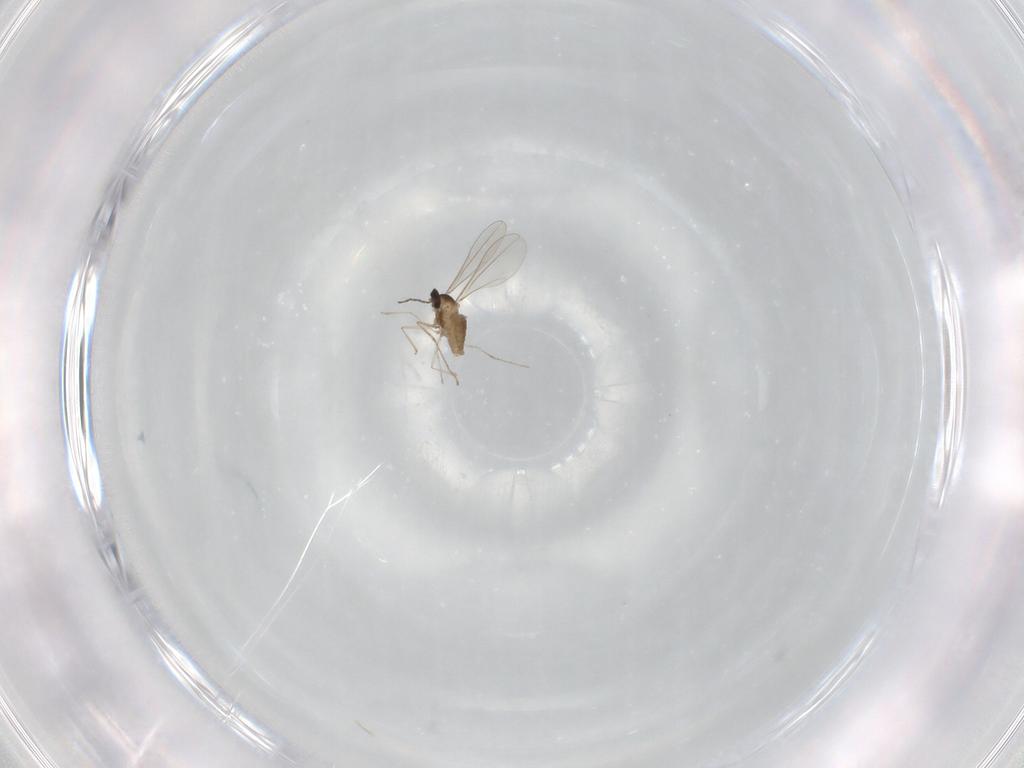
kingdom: Animalia
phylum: Arthropoda
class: Insecta
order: Diptera
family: Cecidomyiidae
